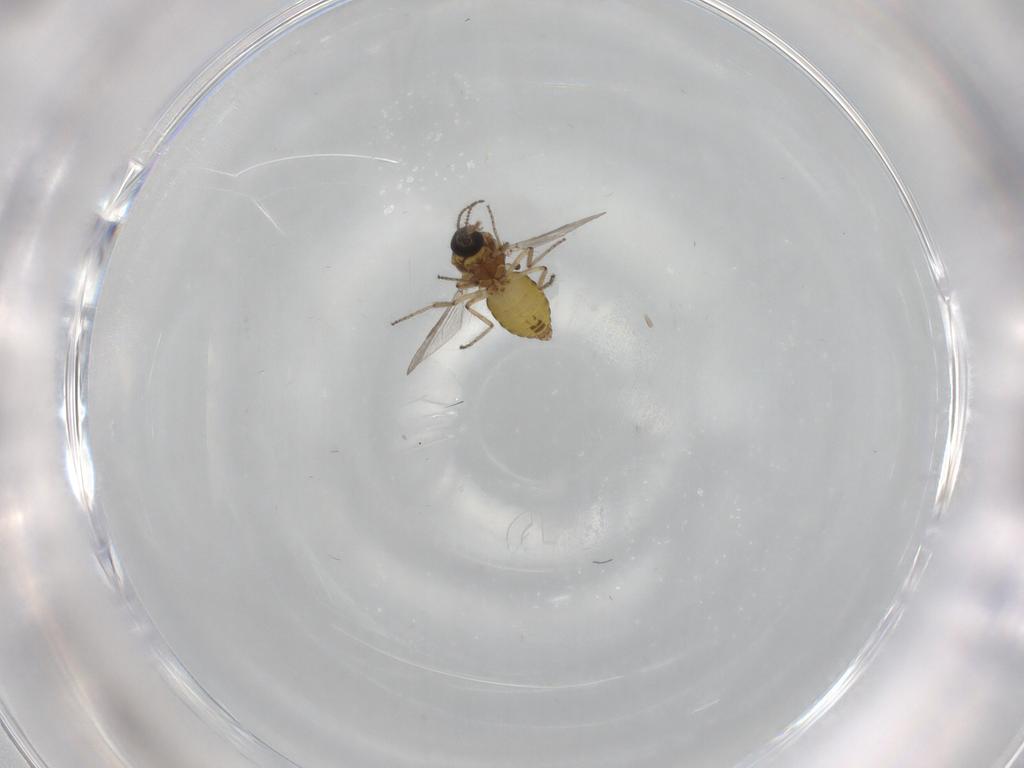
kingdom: Animalia
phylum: Arthropoda
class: Insecta
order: Diptera
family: Ceratopogonidae
